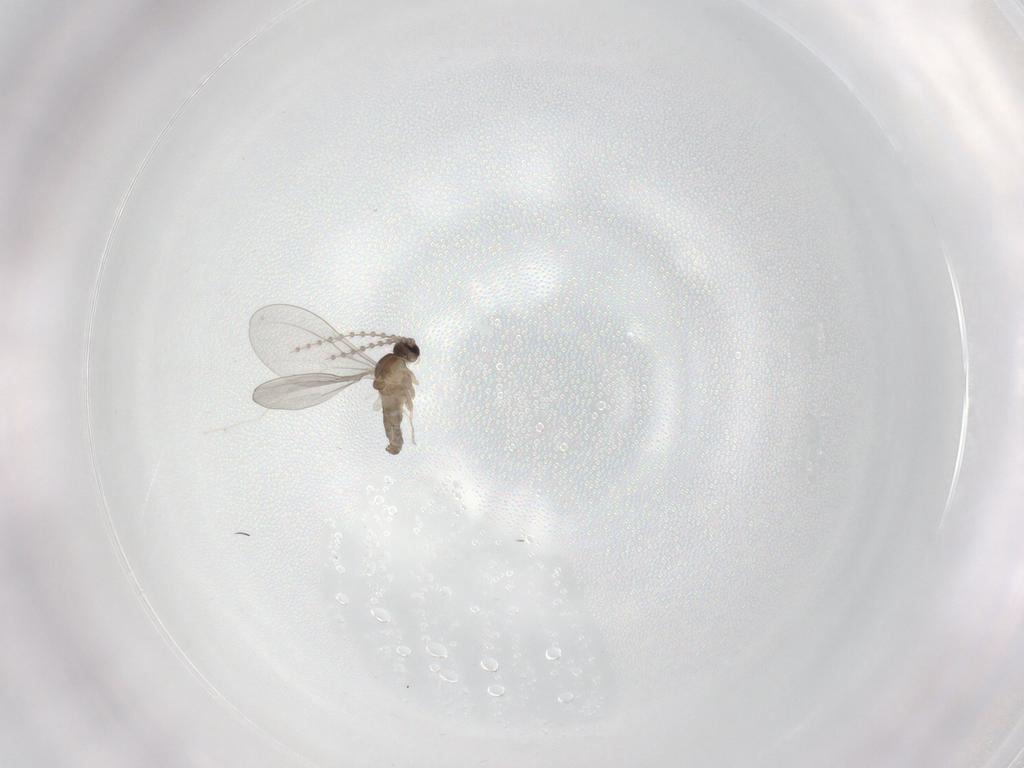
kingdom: Animalia
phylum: Arthropoda
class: Insecta
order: Diptera
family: Cecidomyiidae
